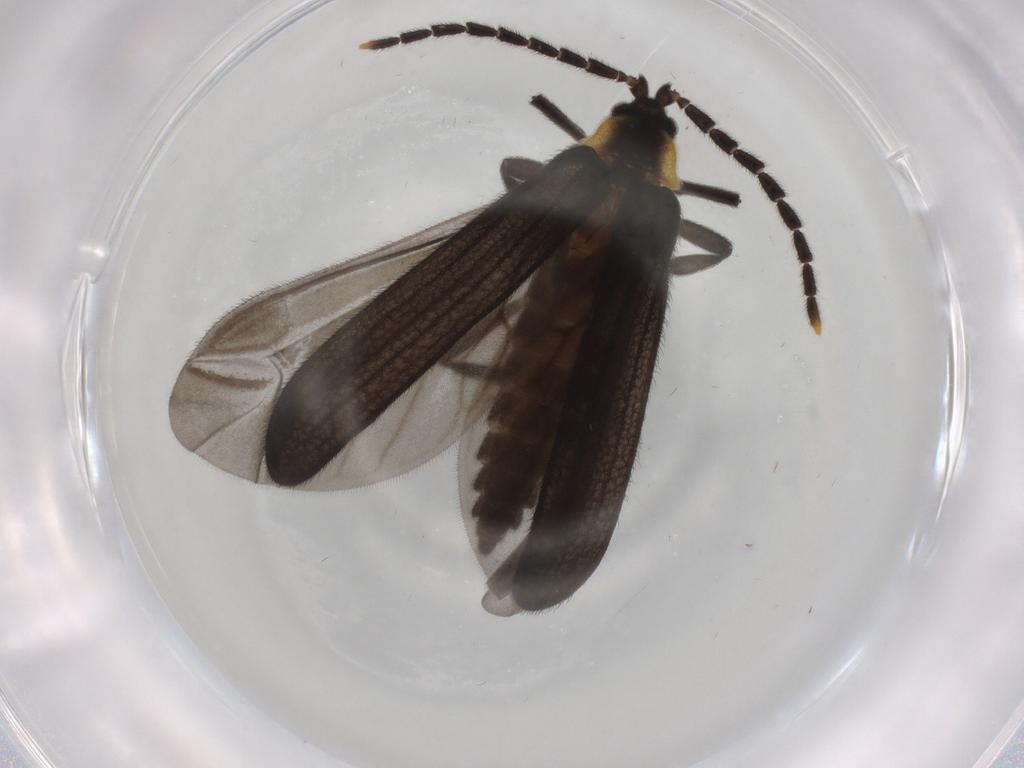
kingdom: Animalia
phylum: Arthropoda
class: Insecta
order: Coleoptera
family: Lycidae
